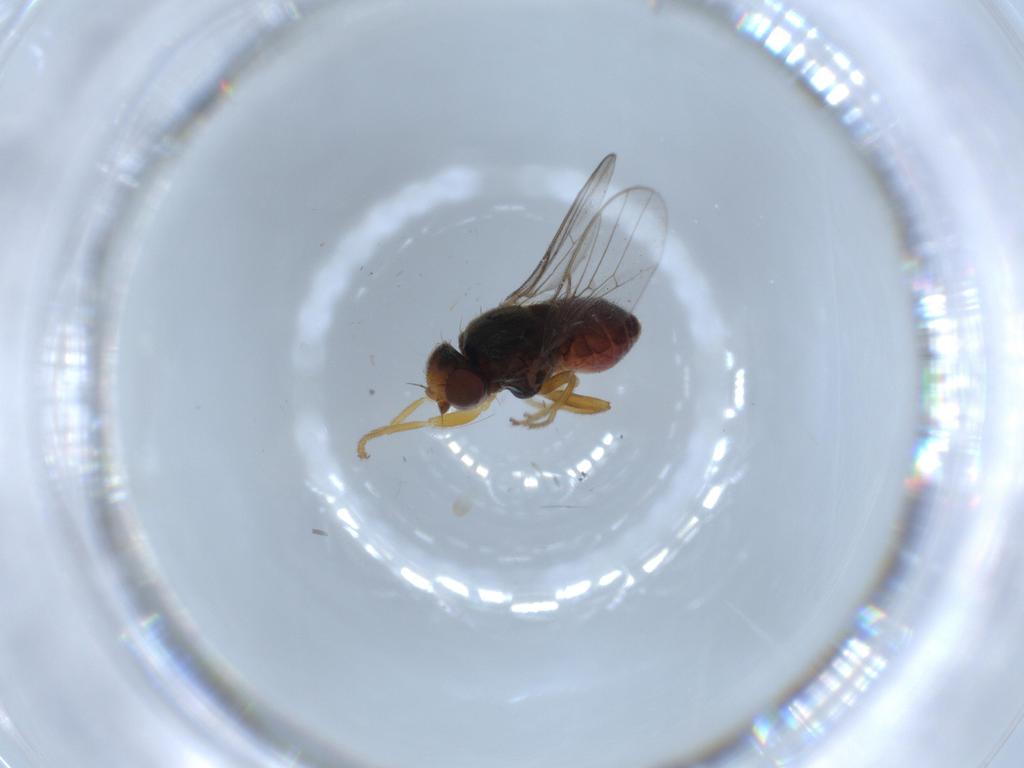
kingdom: Animalia
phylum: Arthropoda
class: Insecta
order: Diptera
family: Chloropidae
